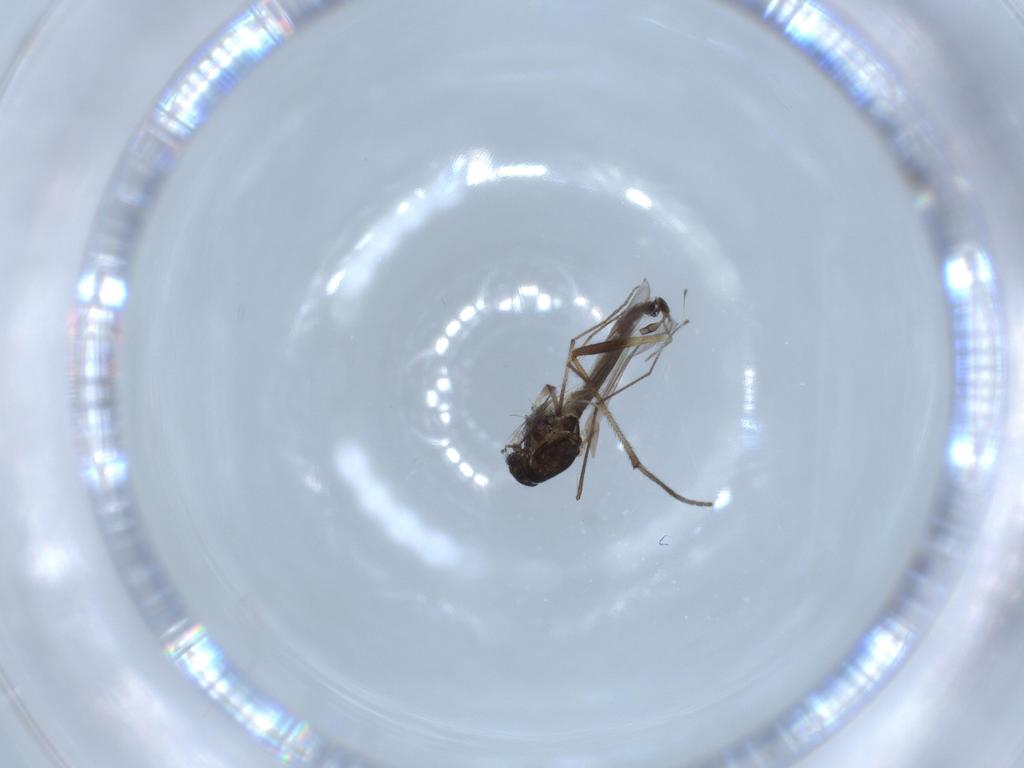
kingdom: Animalia
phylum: Arthropoda
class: Insecta
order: Diptera
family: Sciaridae
